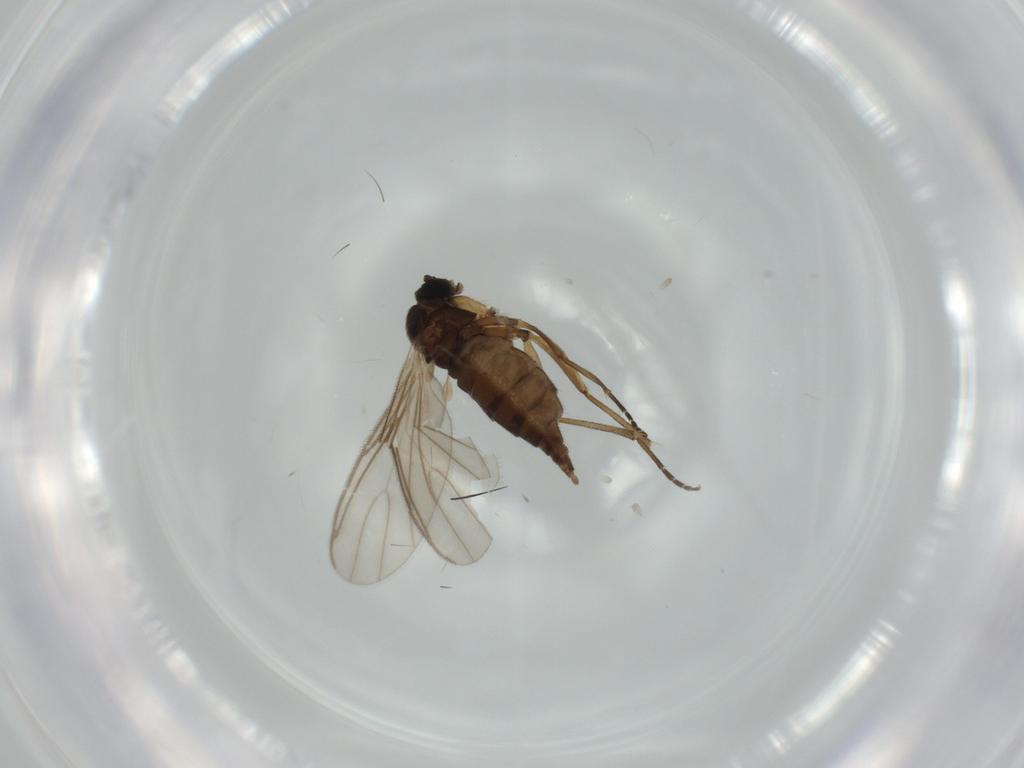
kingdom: Animalia
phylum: Arthropoda
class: Insecta
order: Diptera
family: Sciaridae
